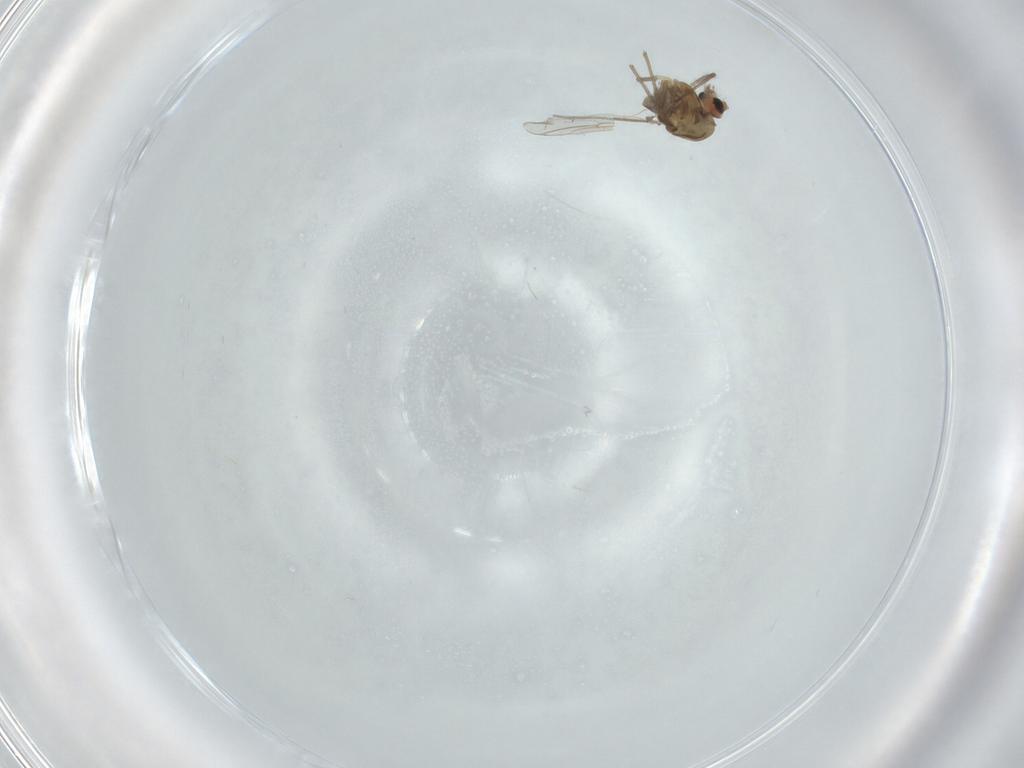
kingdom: Animalia
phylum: Arthropoda
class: Insecta
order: Diptera
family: Chironomidae
